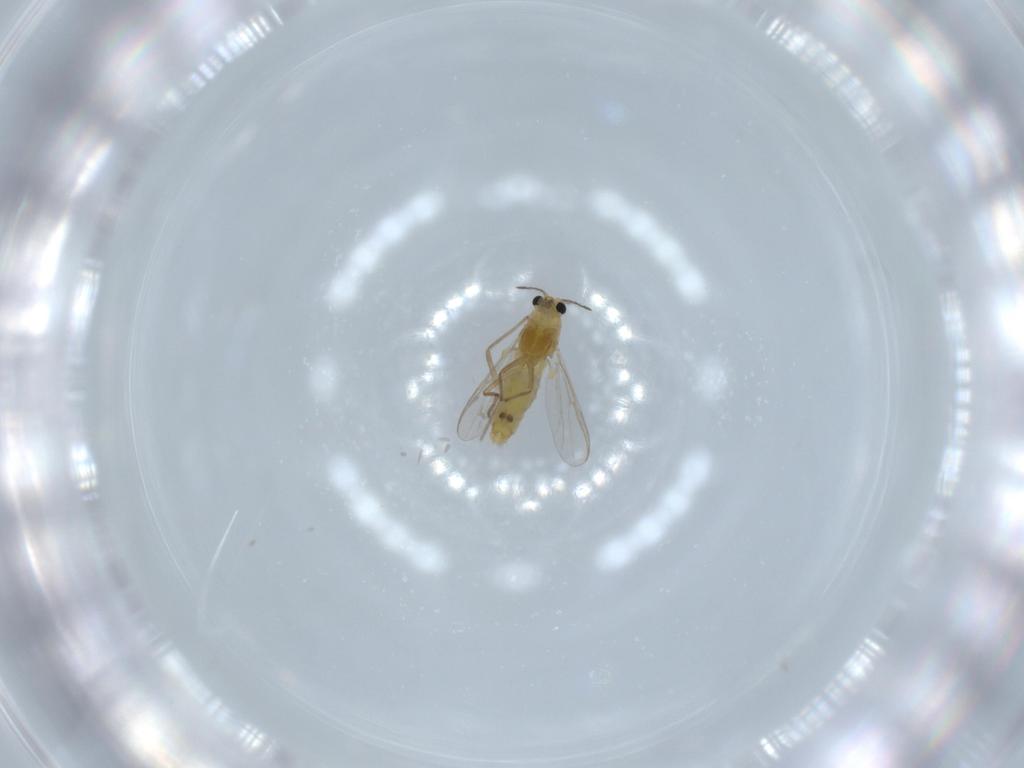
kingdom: Animalia
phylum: Arthropoda
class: Insecta
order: Diptera
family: Chironomidae
